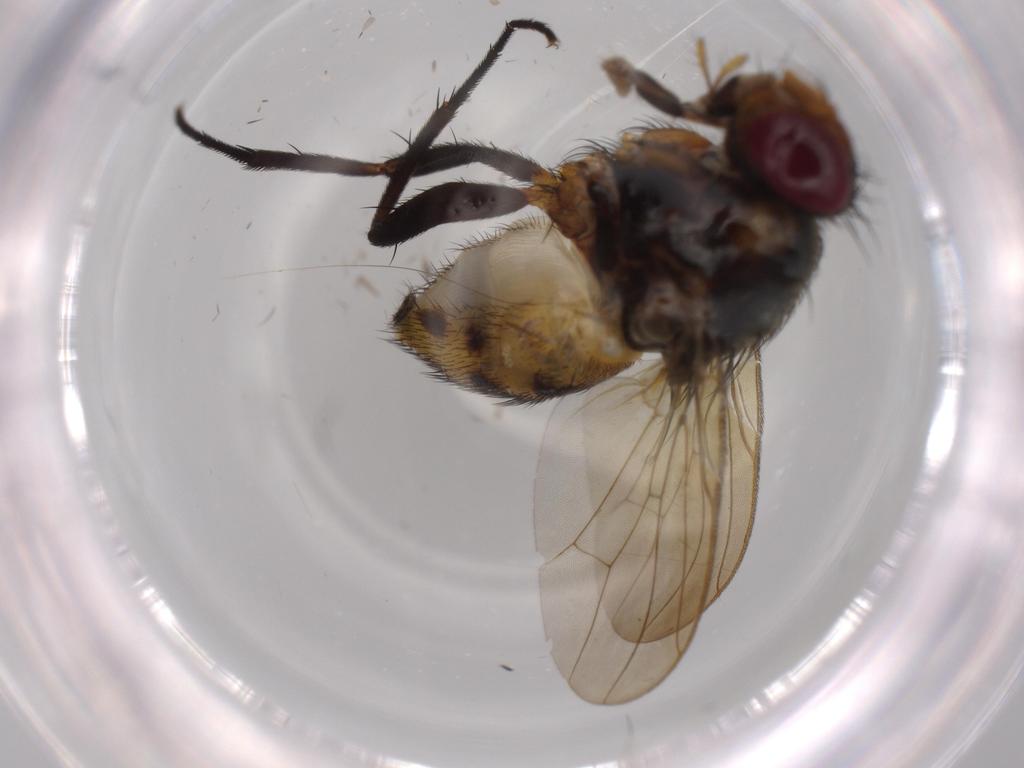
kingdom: Animalia
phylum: Arthropoda
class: Insecta
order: Diptera
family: Anthomyiidae
